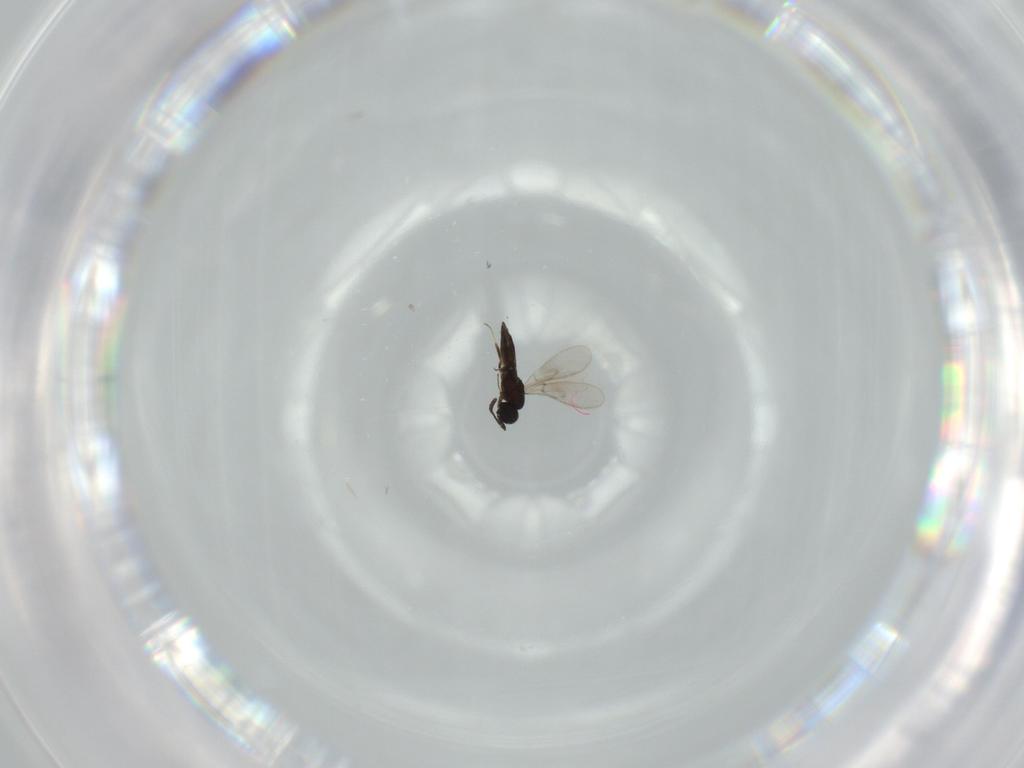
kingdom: Animalia
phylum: Arthropoda
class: Insecta
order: Hymenoptera
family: Scelionidae
